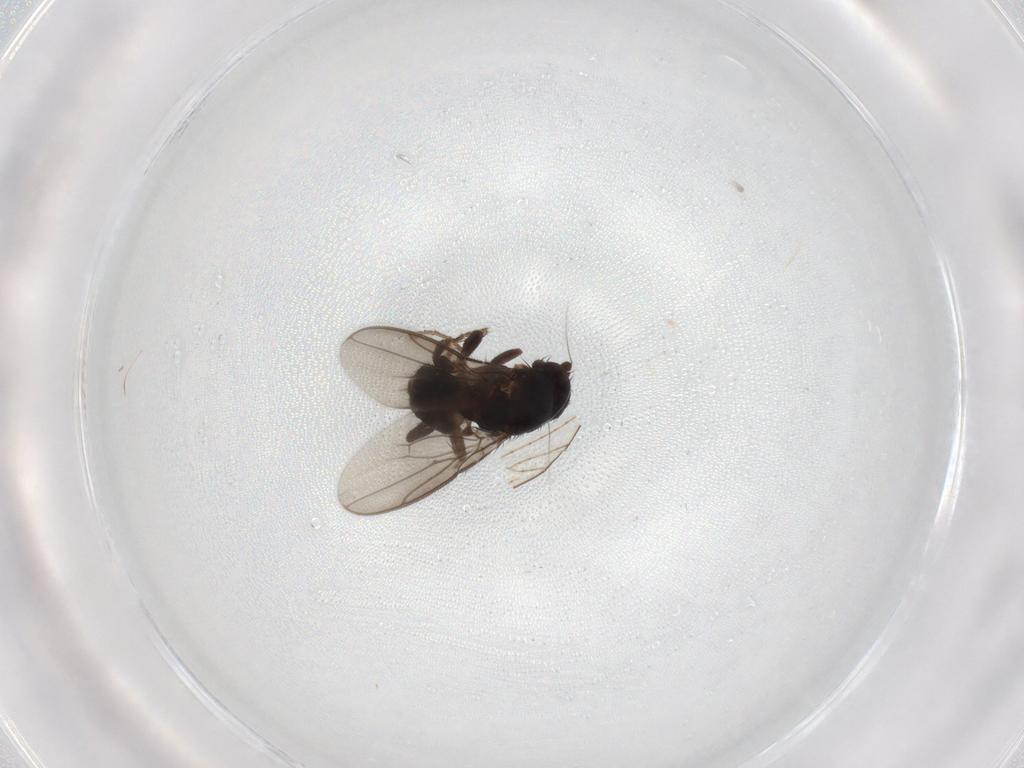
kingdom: Animalia
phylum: Arthropoda
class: Insecta
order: Diptera
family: Sphaeroceridae
